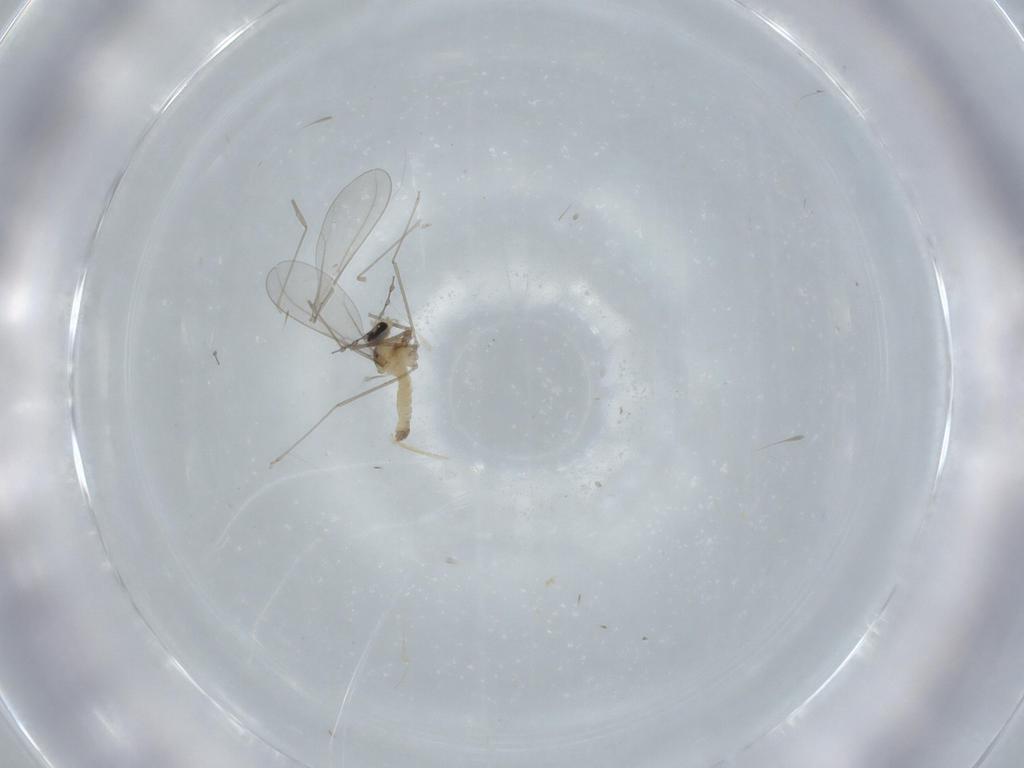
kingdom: Animalia
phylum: Arthropoda
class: Insecta
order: Diptera
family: Cecidomyiidae
